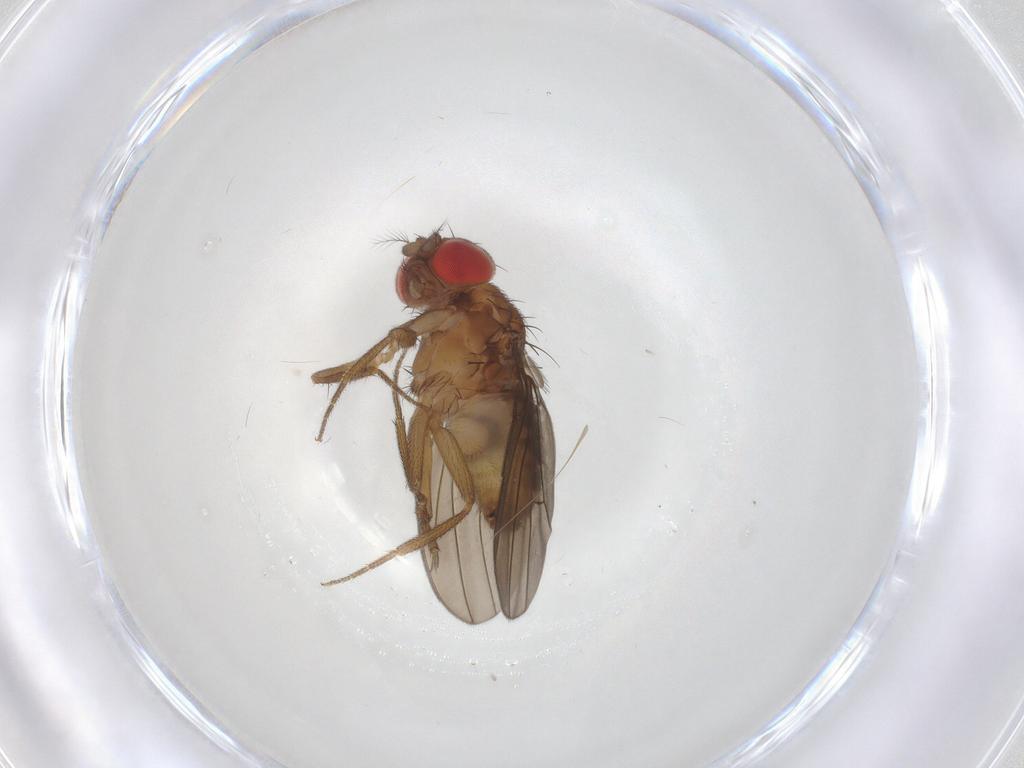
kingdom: Animalia
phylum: Arthropoda
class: Insecta
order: Diptera
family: Drosophilidae
